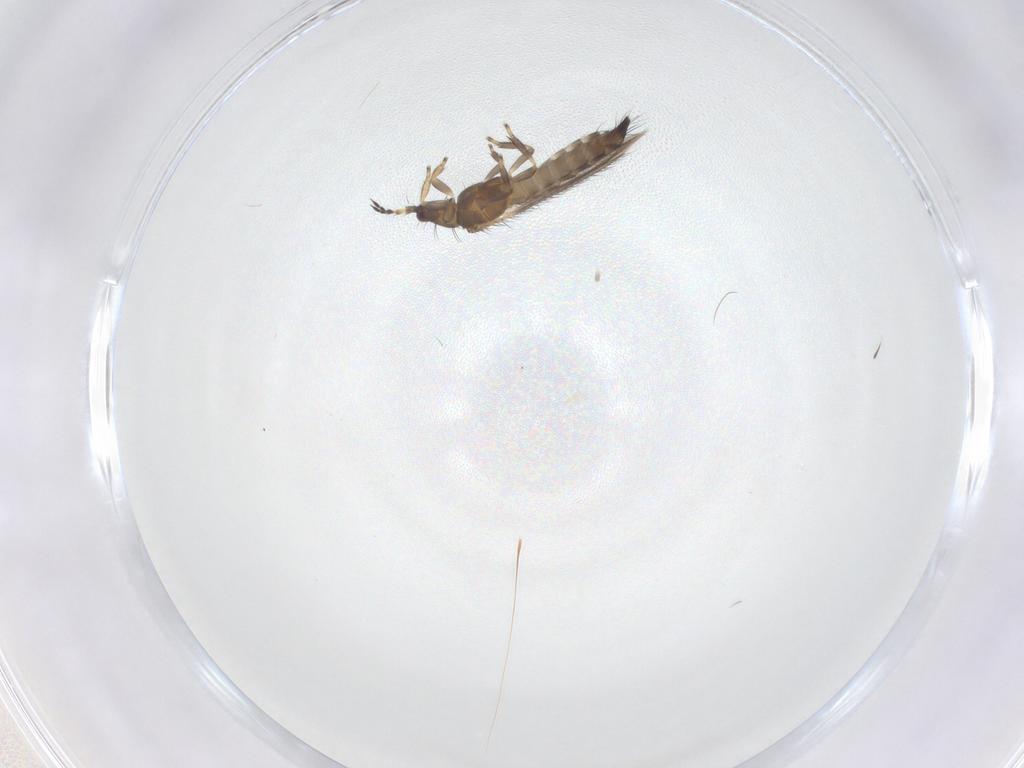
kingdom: Animalia
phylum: Arthropoda
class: Insecta
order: Diptera
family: Sciaridae
